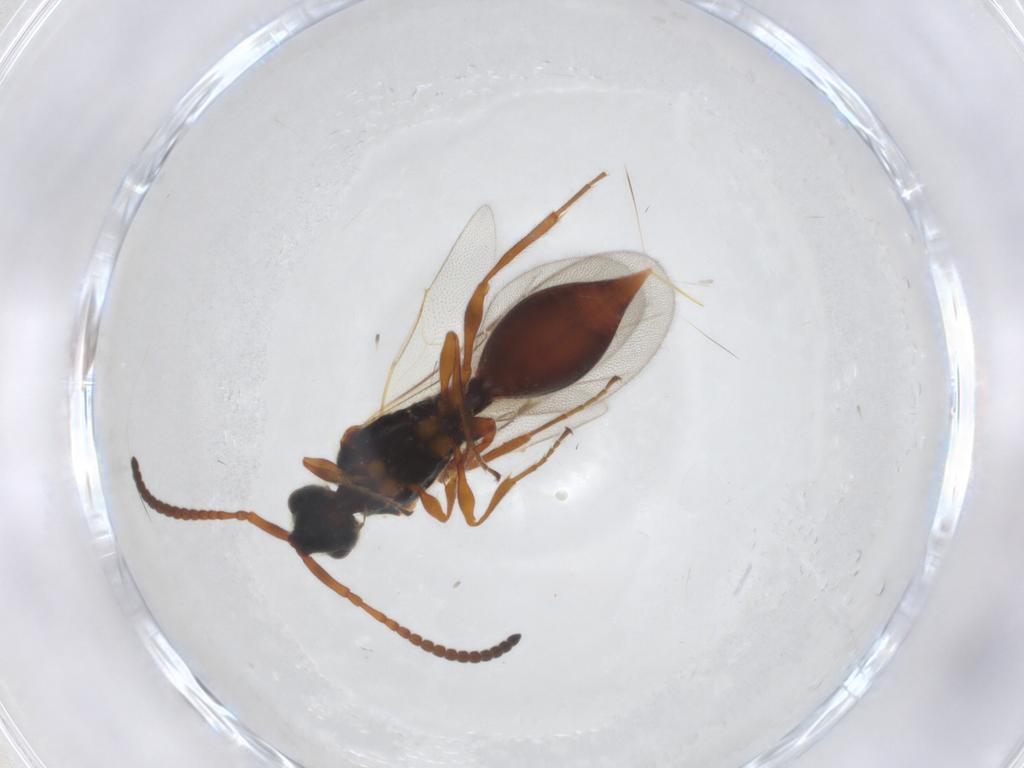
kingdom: Animalia
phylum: Arthropoda
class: Insecta
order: Hymenoptera
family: Diapriidae
